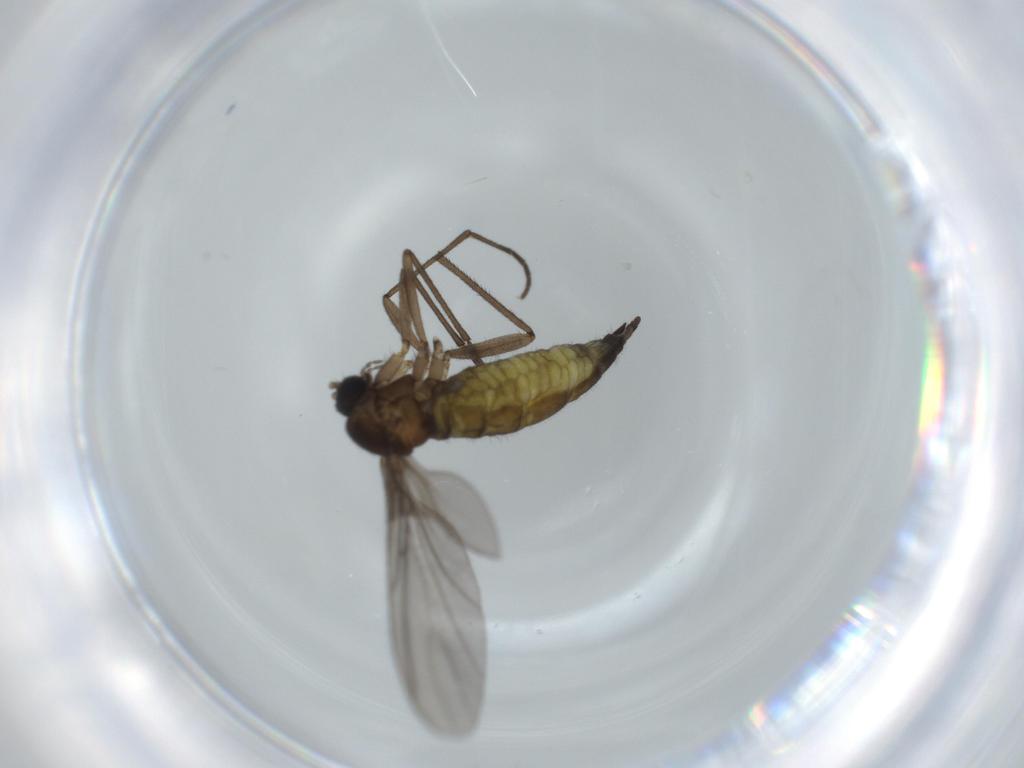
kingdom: Animalia
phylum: Arthropoda
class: Insecta
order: Diptera
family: Sciaridae
